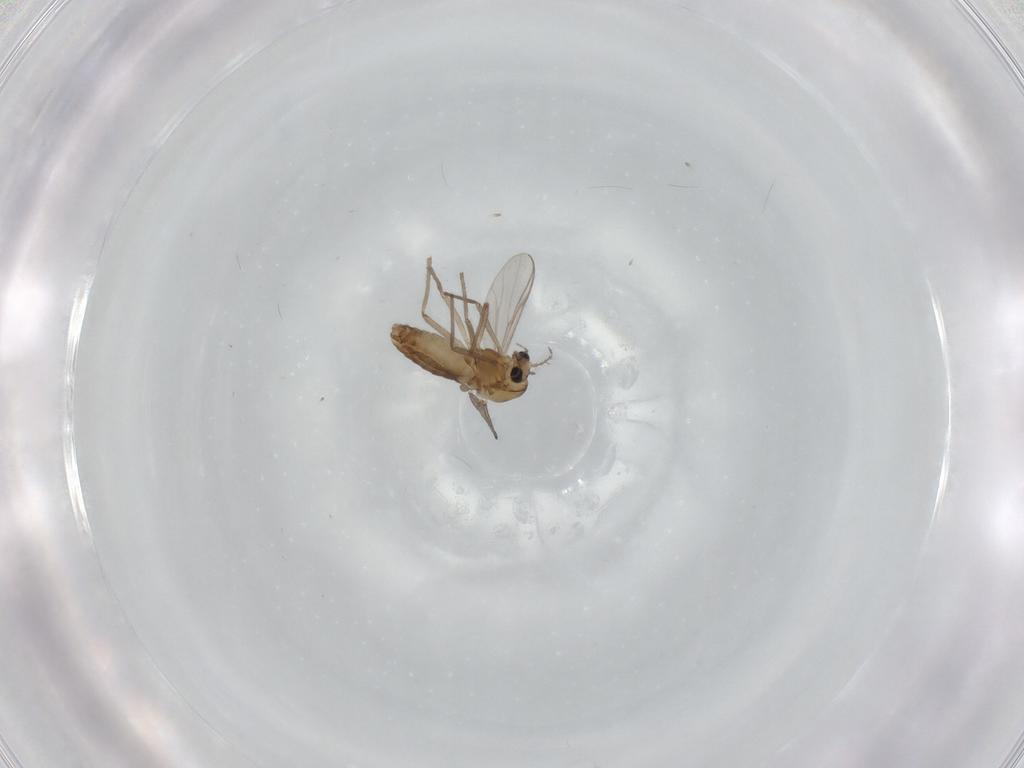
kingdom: Animalia
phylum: Arthropoda
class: Insecta
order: Diptera
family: Chironomidae
